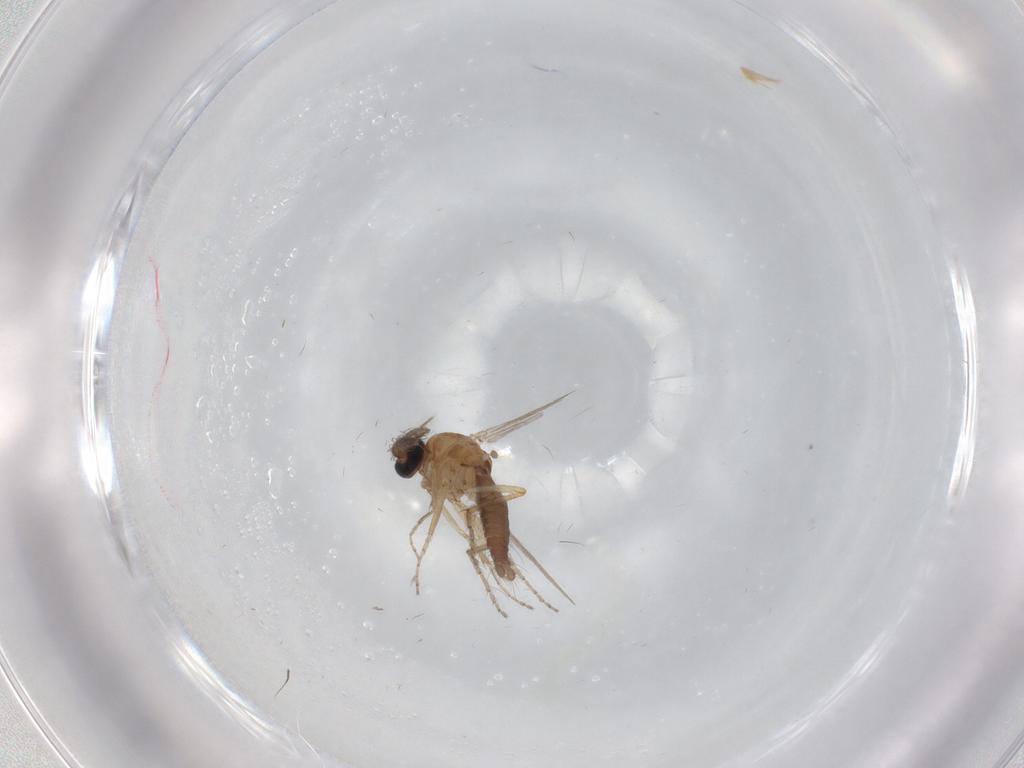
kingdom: Animalia
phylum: Arthropoda
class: Insecta
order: Diptera
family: Ceratopogonidae
